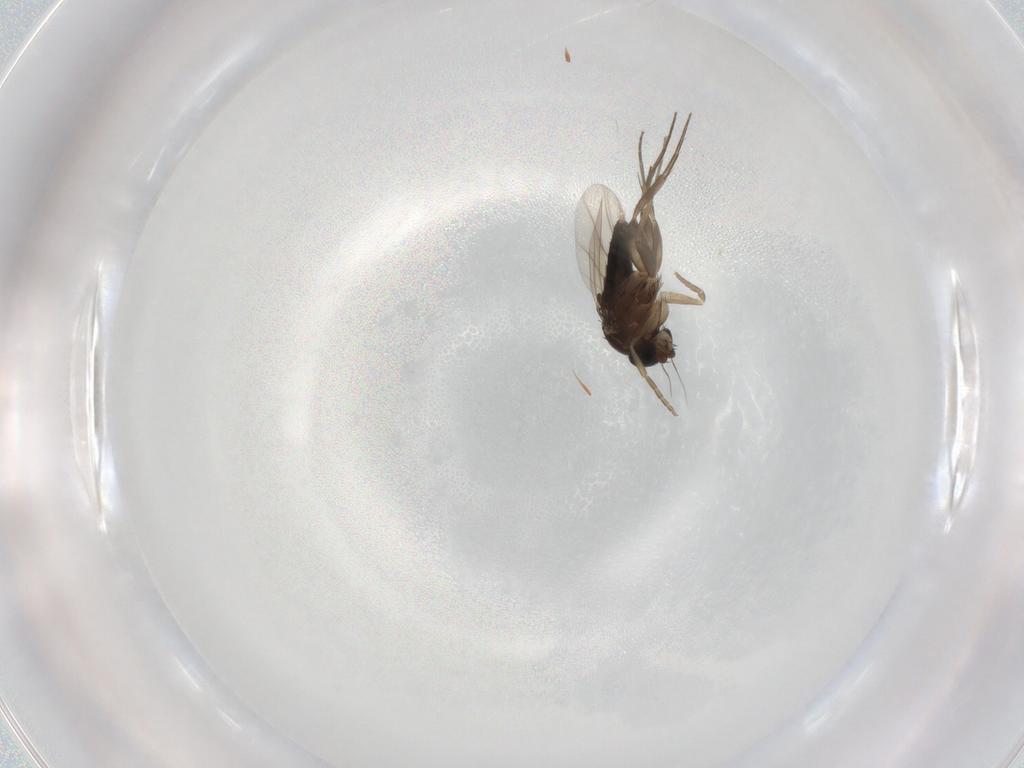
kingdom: Animalia
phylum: Arthropoda
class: Insecta
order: Diptera
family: Phoridae
